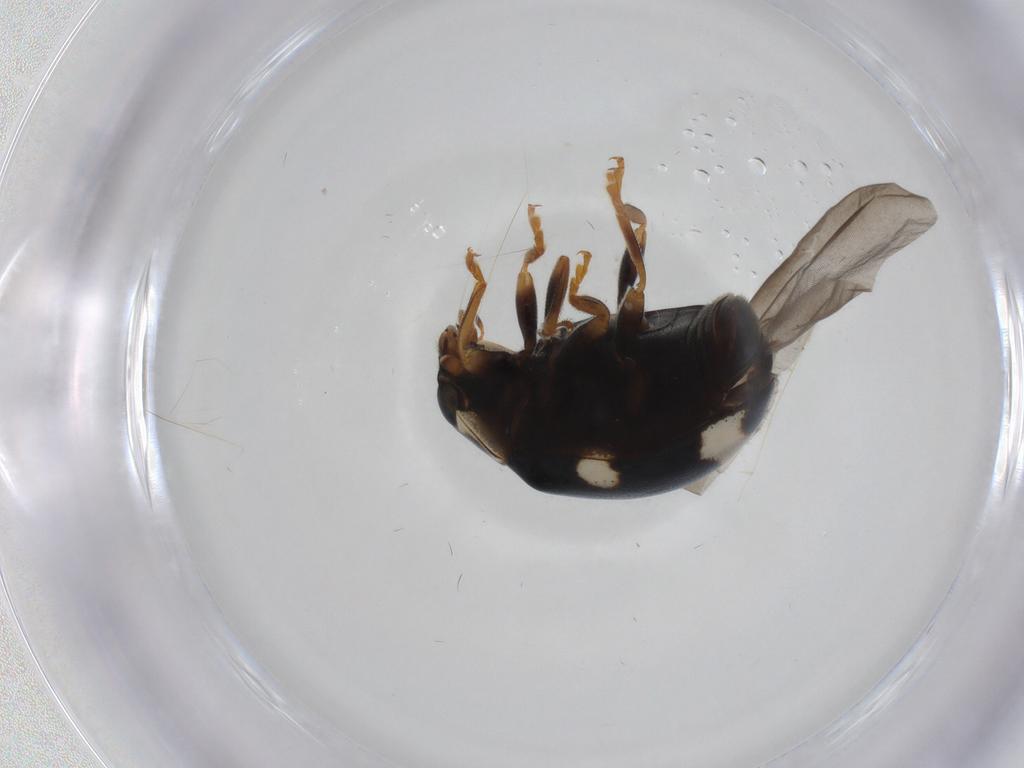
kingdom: Animalia
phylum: Arthropoda
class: Insecta
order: Coleoptera
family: Coccinellidae
